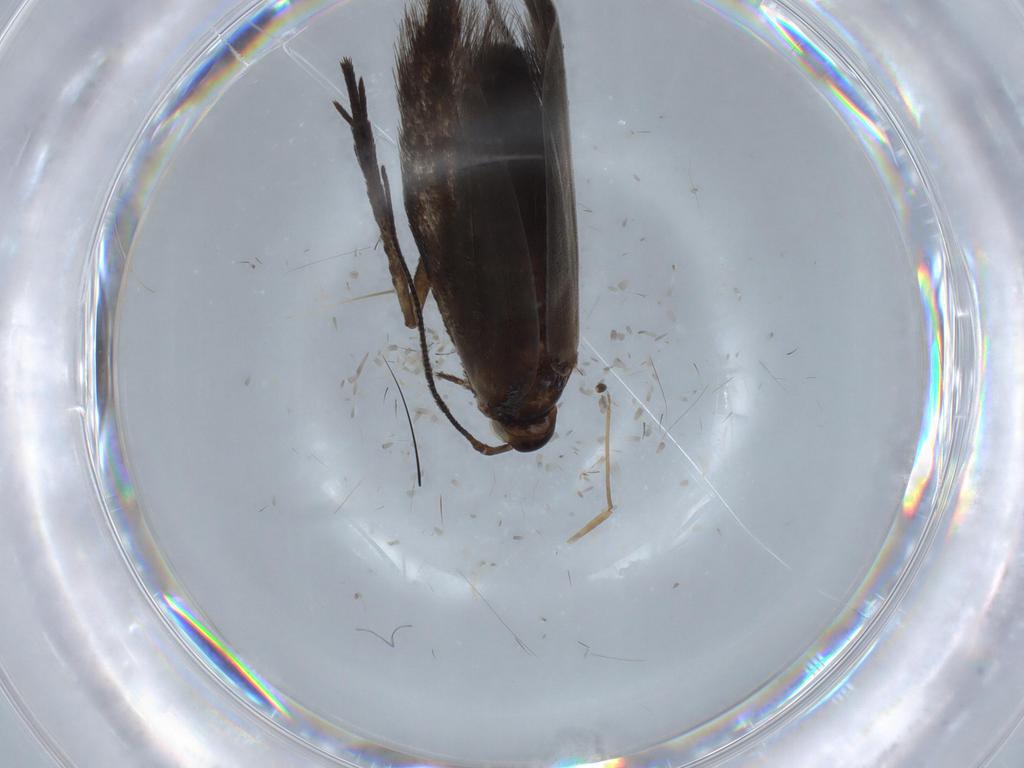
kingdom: Animalia
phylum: Arthropoda
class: Insecta
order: Lepidoptera
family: Coleophoridae
